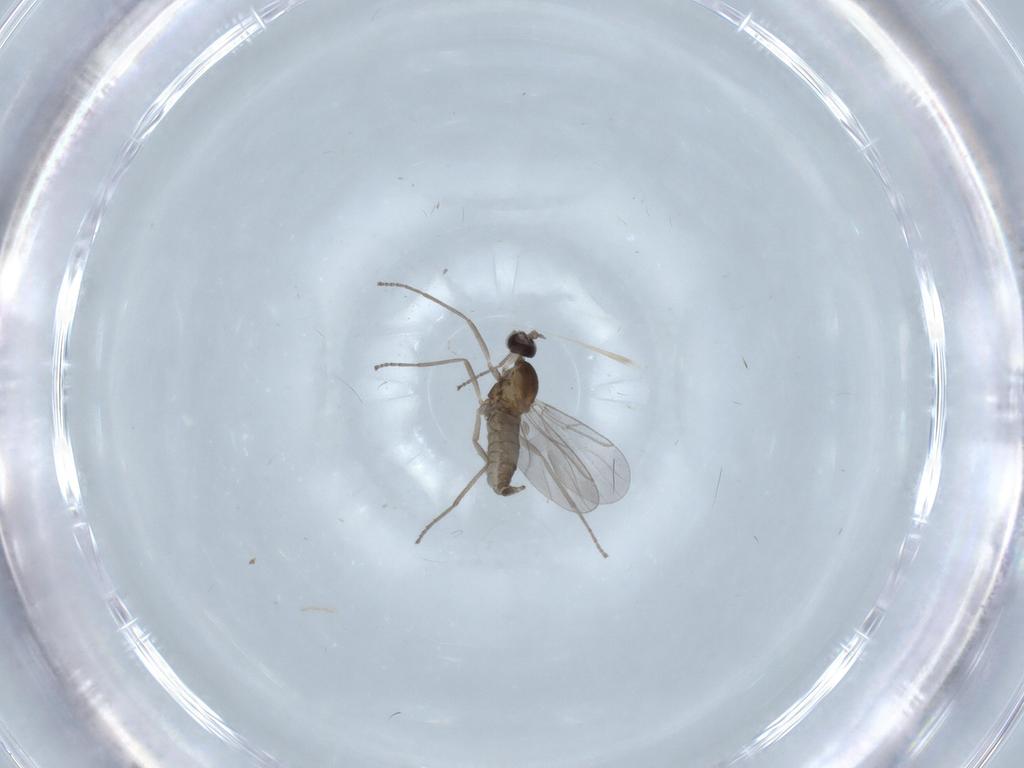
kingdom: Animalia
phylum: Arthropoda
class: Insecta
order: Diptera
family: Cecidomyiidae
